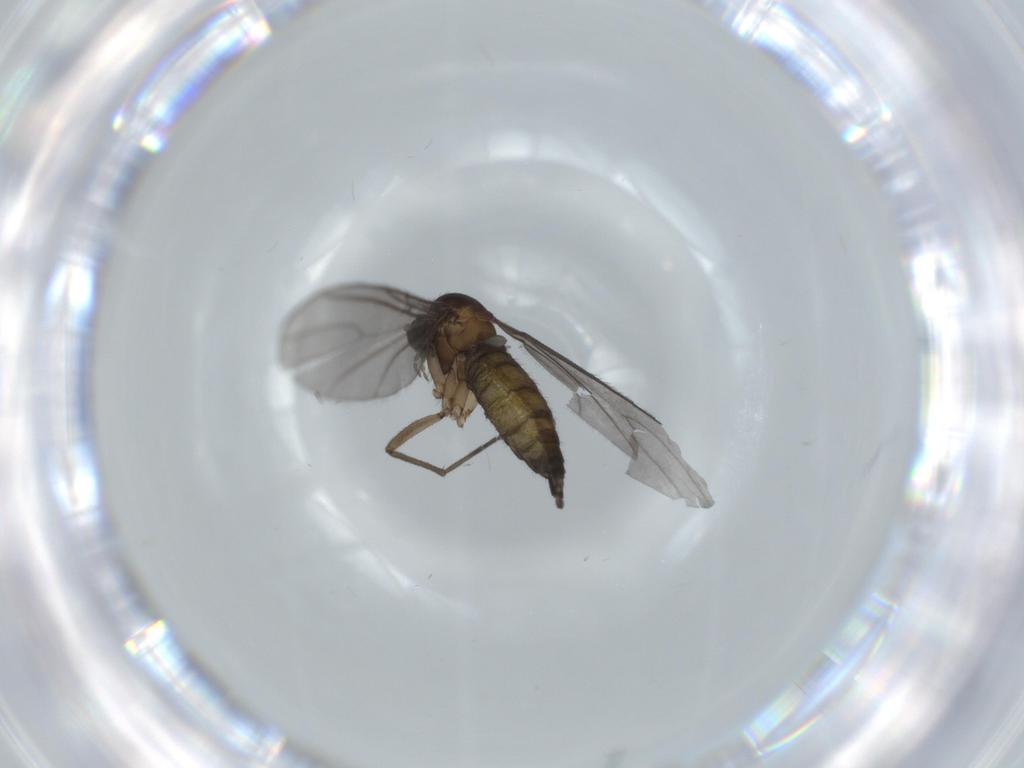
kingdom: Animalia
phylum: Arthropoda
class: Insecta
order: Diptera
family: Sciaridae
